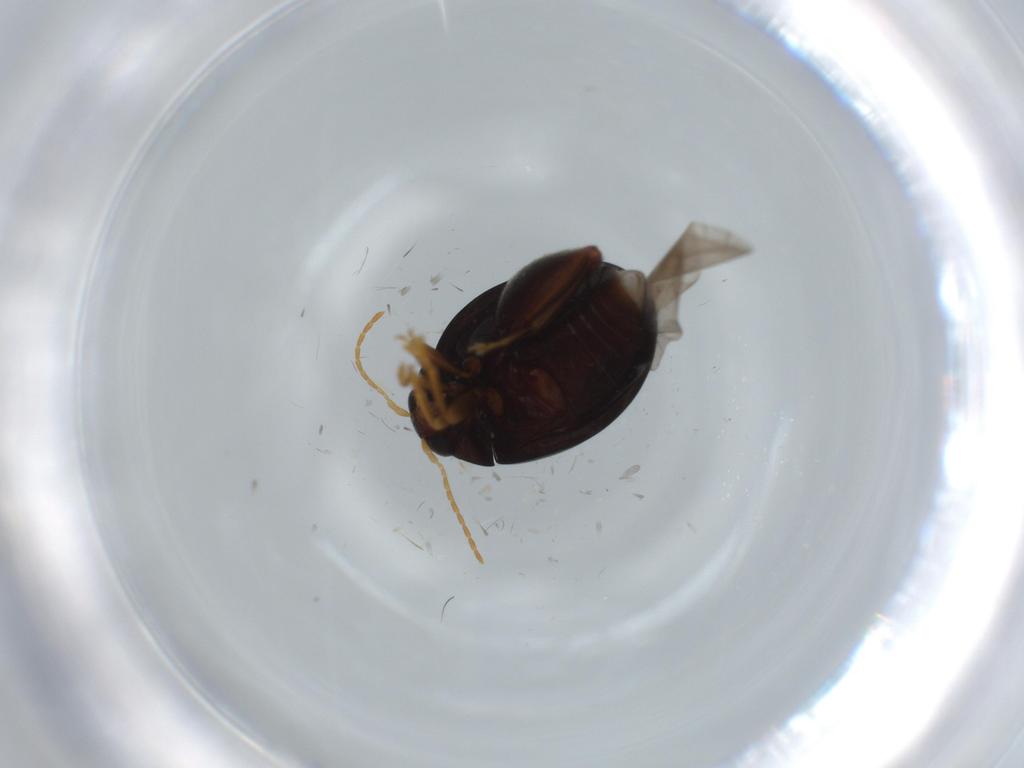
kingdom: Animalia
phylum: Arthropoda
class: Insecta
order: Coleoptera
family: Chrysomelidae
